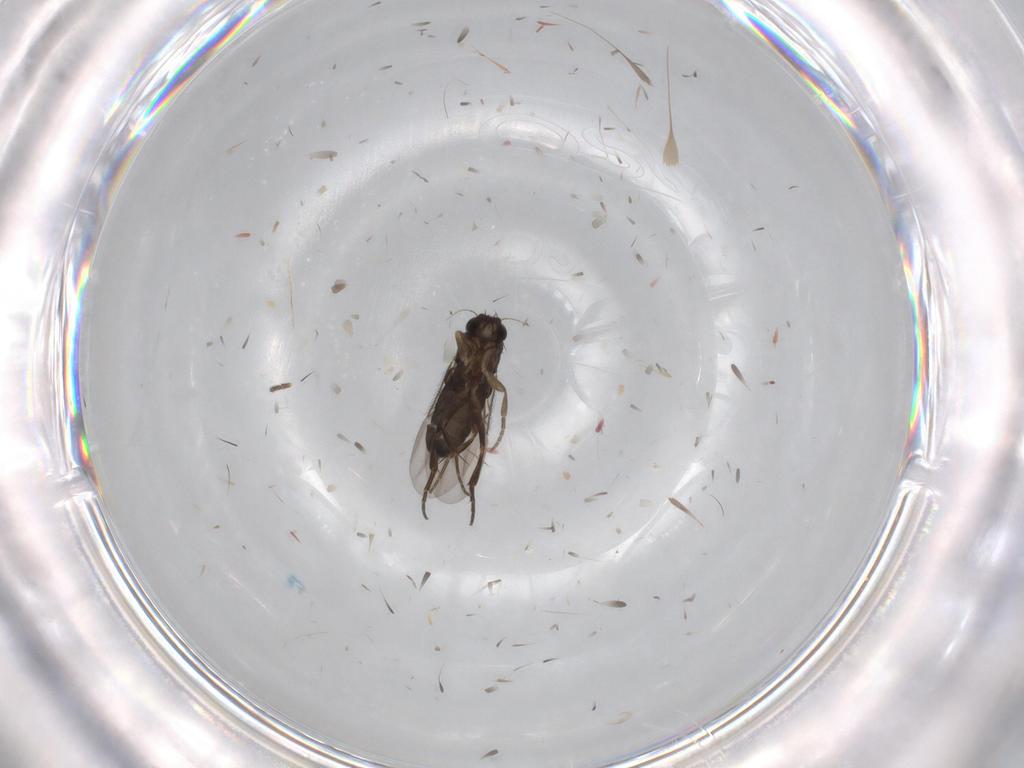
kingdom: Animalia
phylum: Arthropoda
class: Insecta
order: Diptera
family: Phoridae
